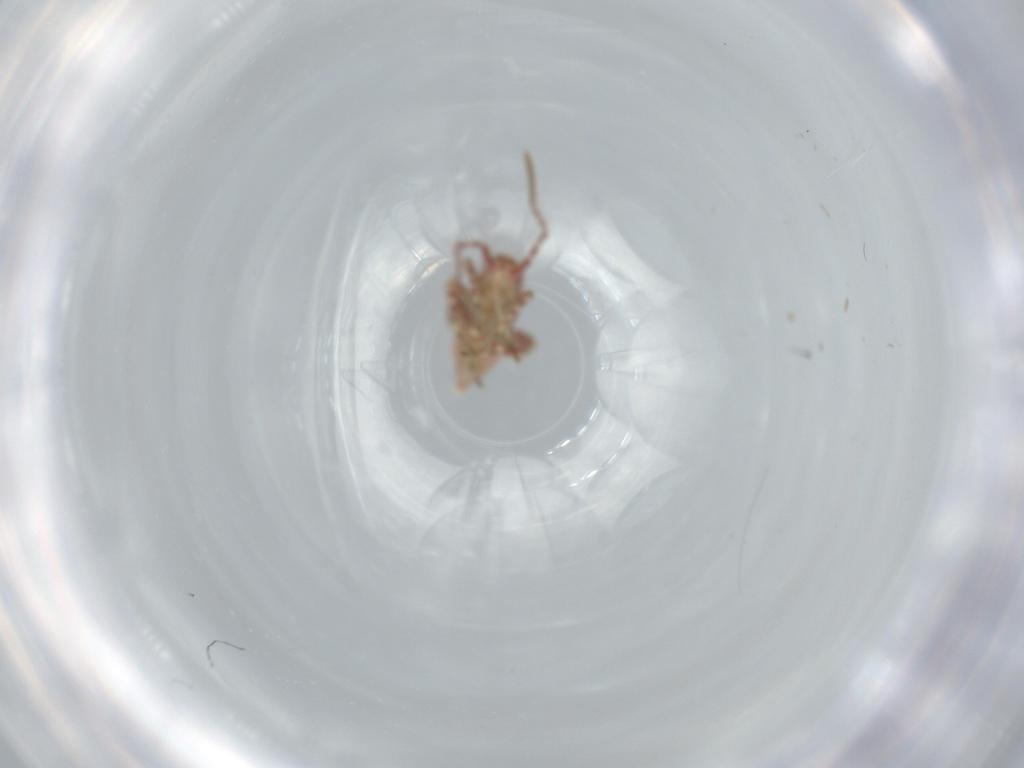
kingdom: Animalia
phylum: Arthropoda
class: Insecta
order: Hemiptera
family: Miridae
